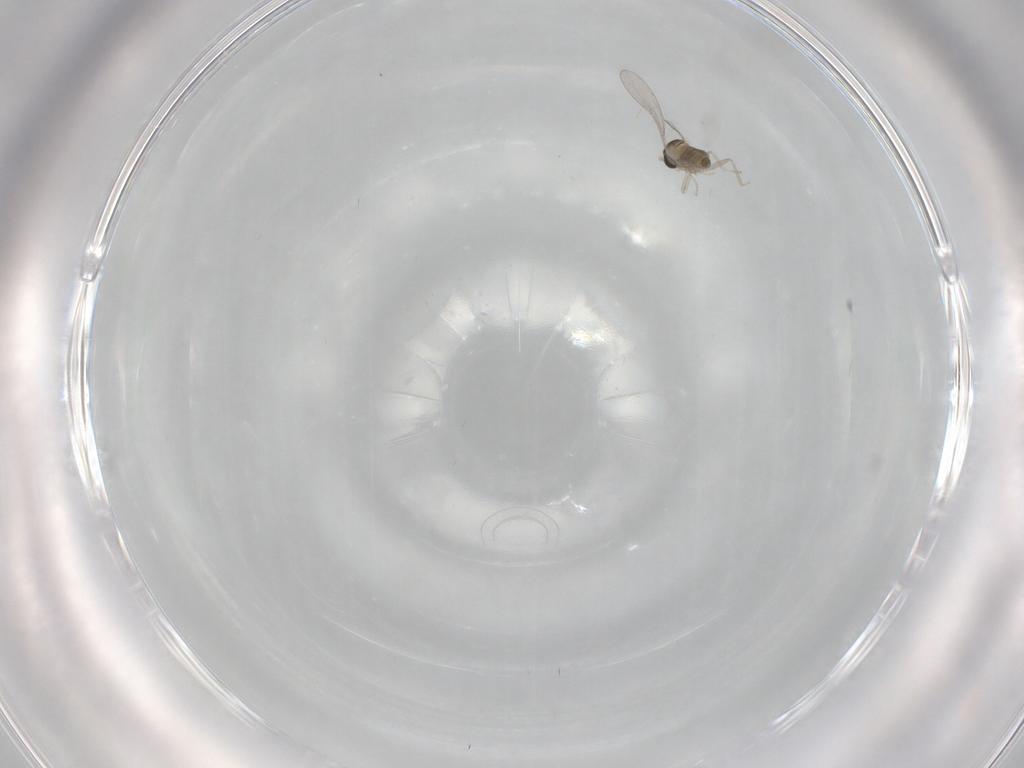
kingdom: Animalia
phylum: Arthropoda
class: Insecta
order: Diptera
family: Cecidomyiidae
